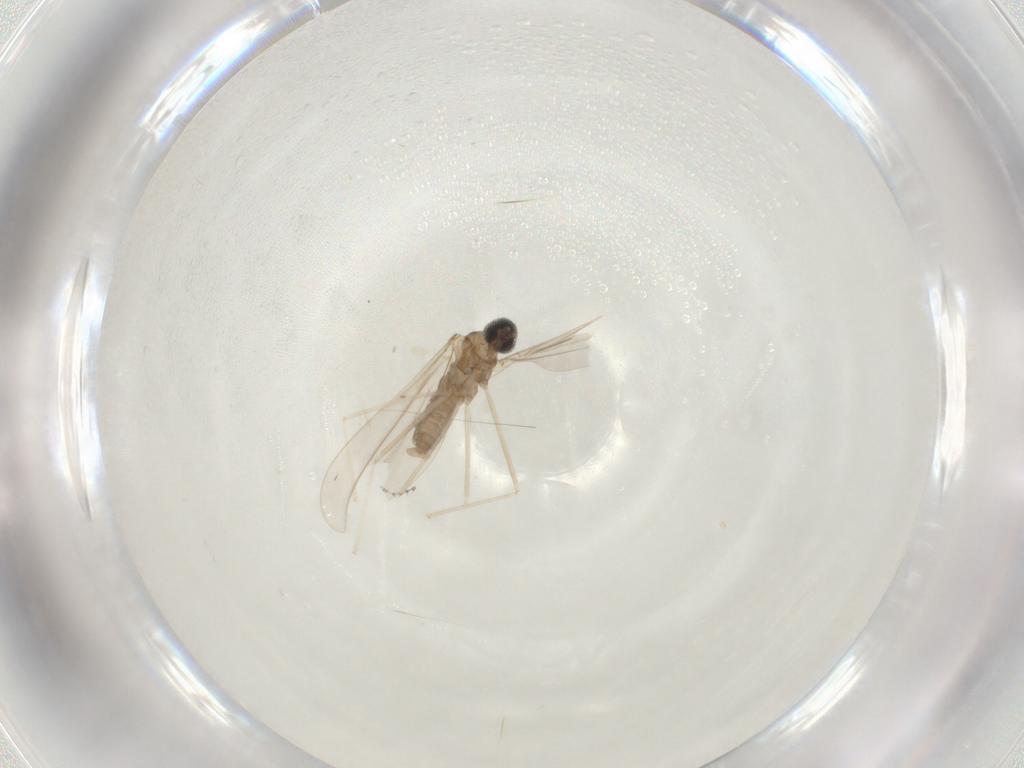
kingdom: Animalia
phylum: Arthropoda
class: Insecta
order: Diptera
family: Cecidomyiidae
